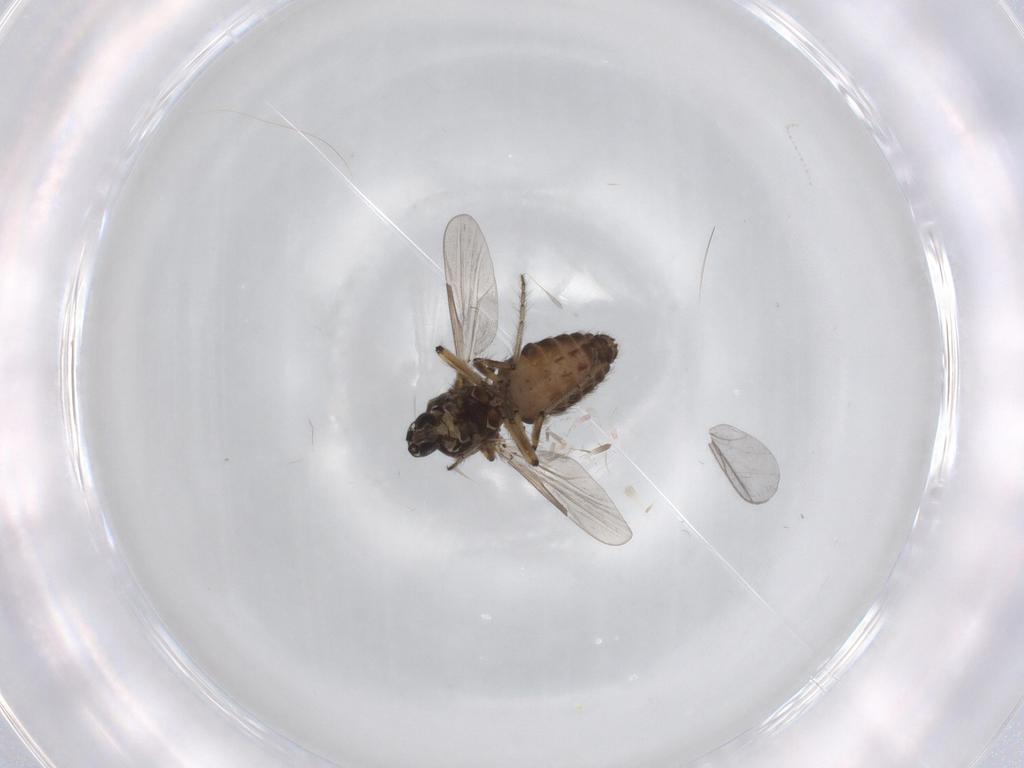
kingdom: Animalia
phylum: Arthropoda
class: Insecta
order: Diptera
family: Cecidomyiidae
